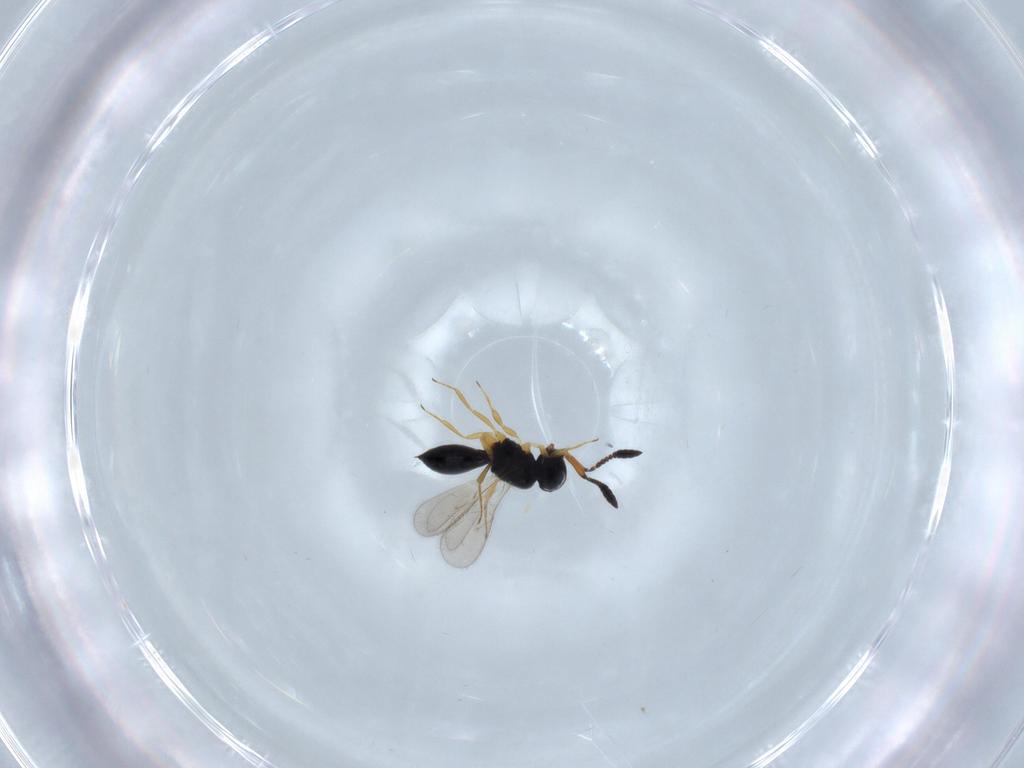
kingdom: Animalia
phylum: Arthropoda
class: Insecta
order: Hymenoptera
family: Scelionidae
